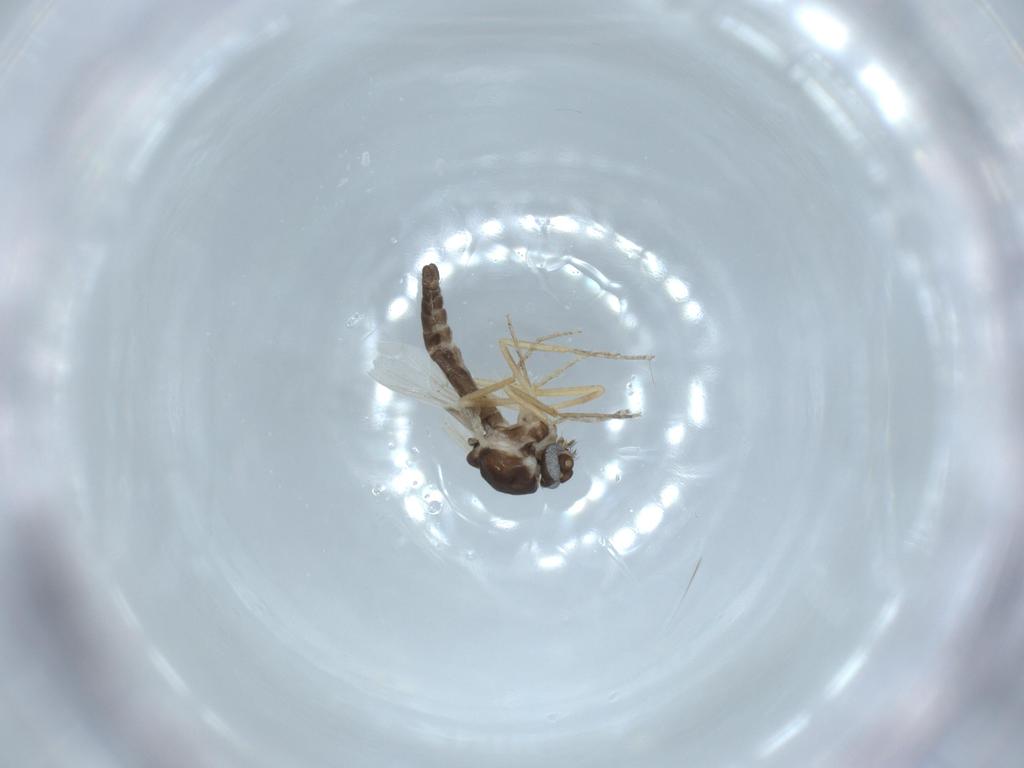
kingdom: Animalia
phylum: Arthropoda
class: Insecta
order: Diptera
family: Ceratopogonidae
